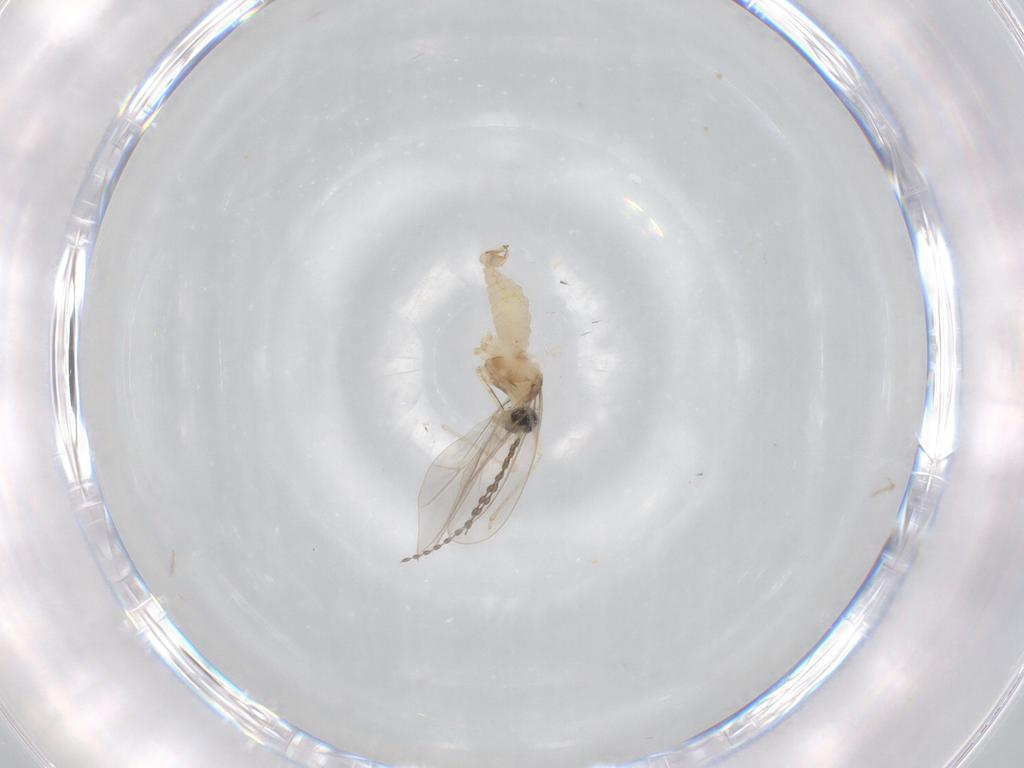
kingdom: Animalia
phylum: Arthropoda
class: Insecta
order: Diptera
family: Cecidomyiidae
